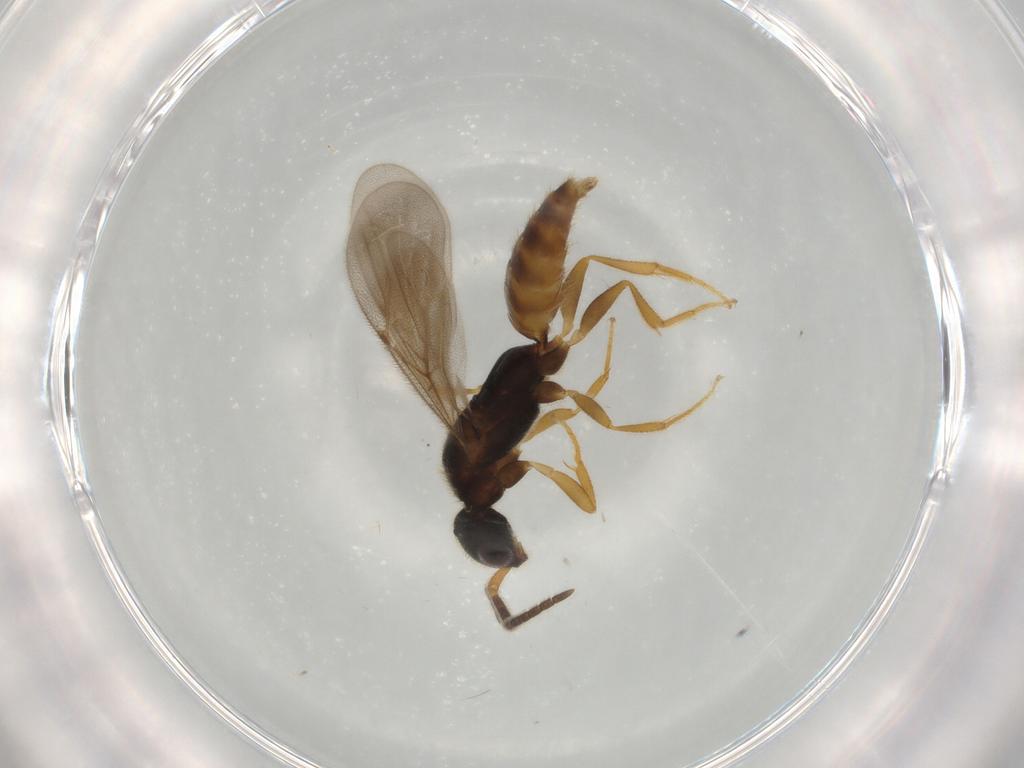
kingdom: Animalia
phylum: Arthropoda
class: Insecta
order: Hymenoptera
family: Bethylidae
